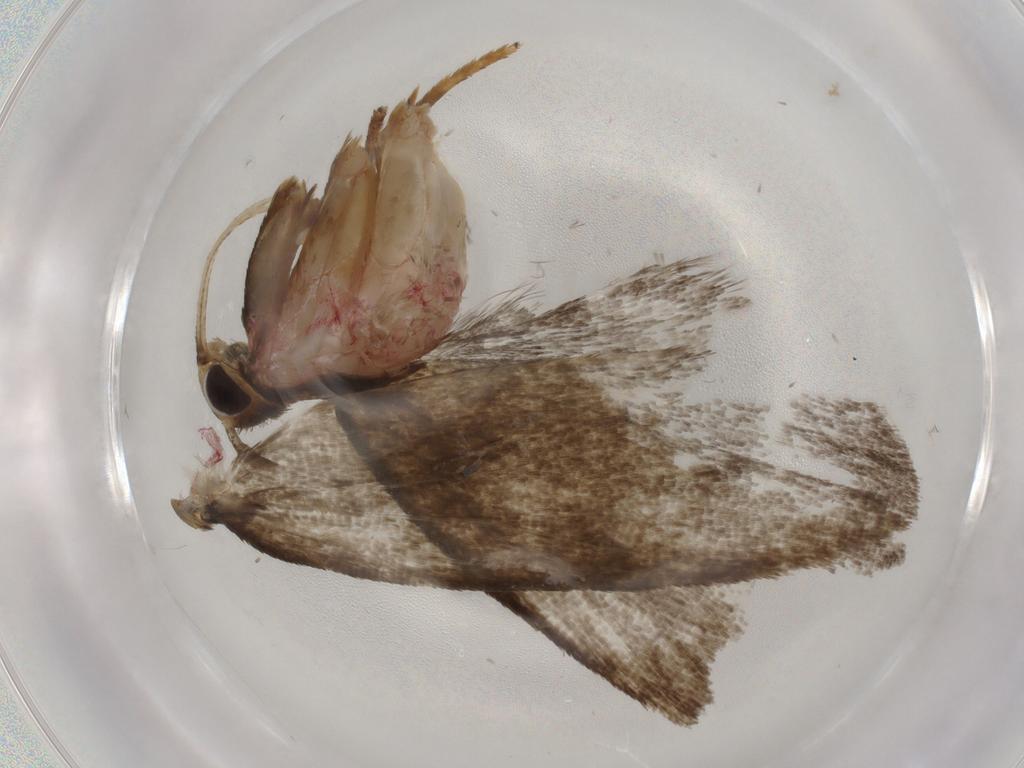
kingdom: Animalia
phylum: Arthropoda
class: Insecta
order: Lepidoptera
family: Autostichidae
